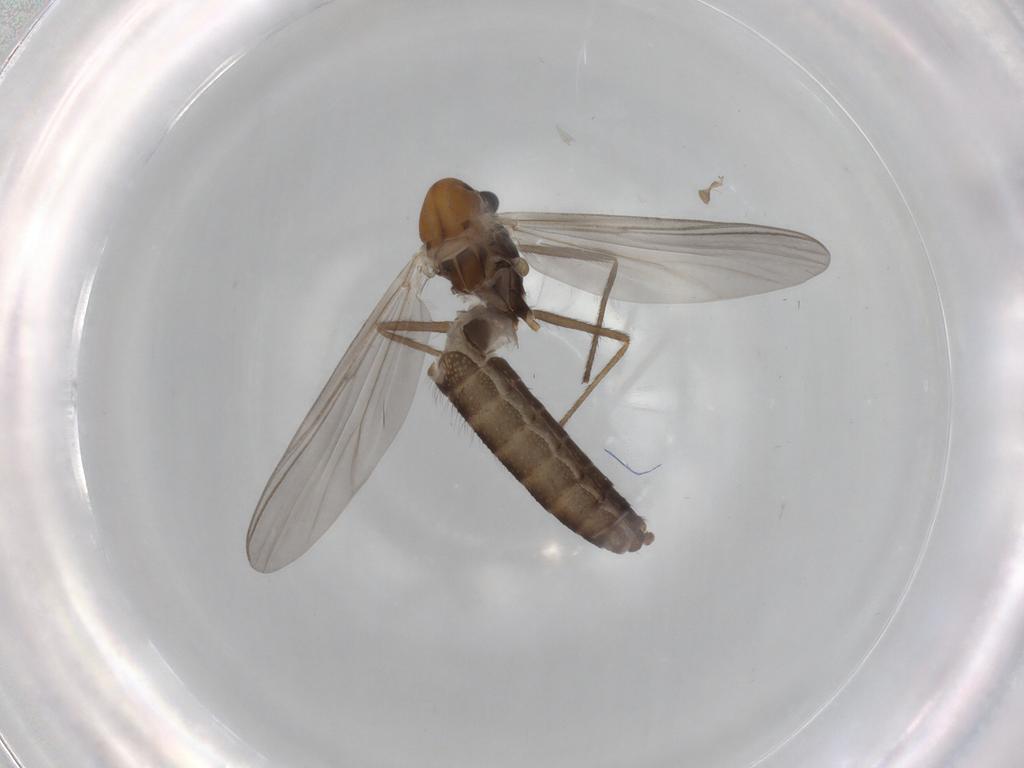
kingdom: Animalia
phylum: Arthropoda
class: Insecta
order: Diptera
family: Chironomidae
